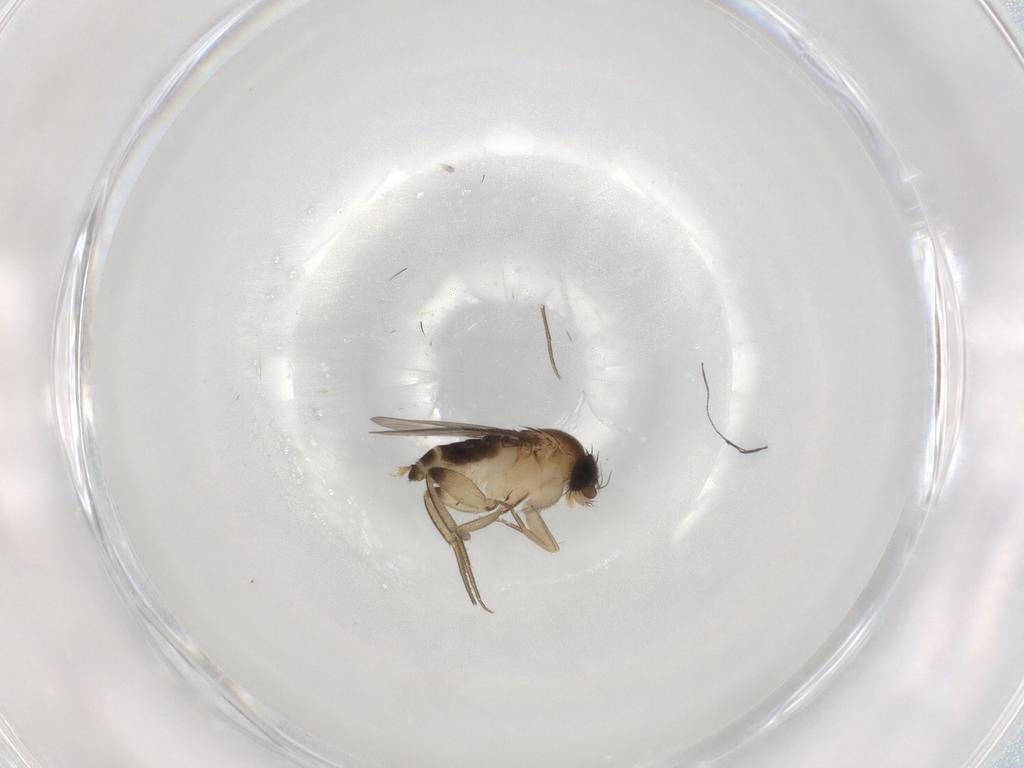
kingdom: Animalia
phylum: Arthropoda
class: Insecta
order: Diptera
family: Phoridae
